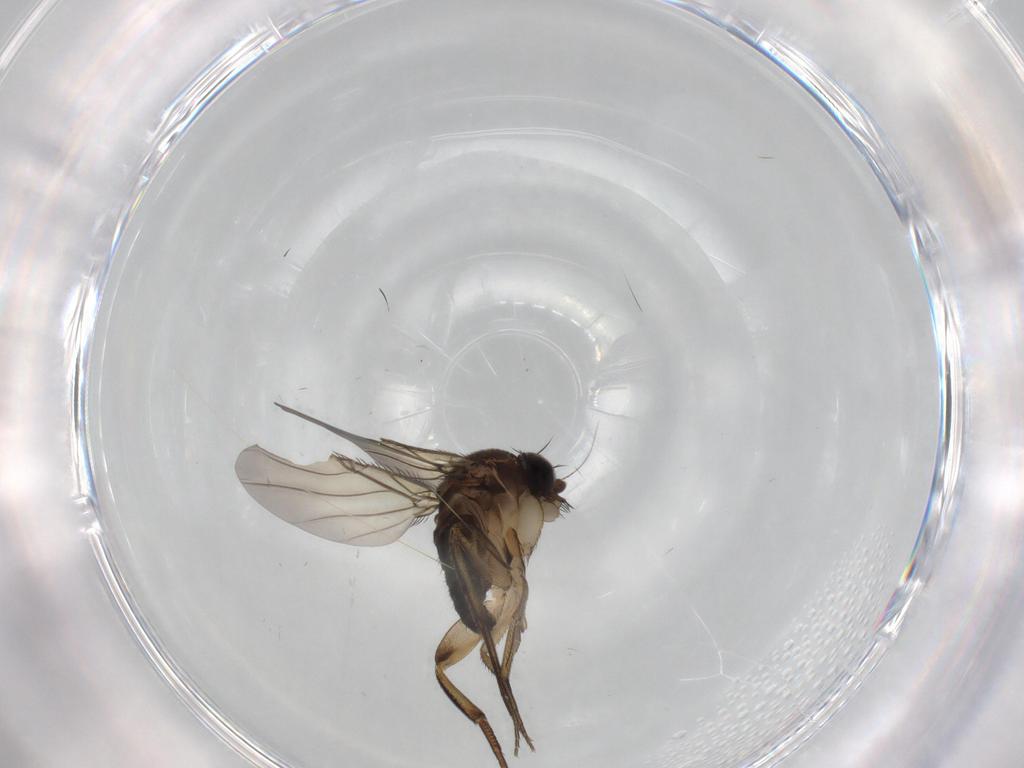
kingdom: Animalia
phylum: Arthropoda
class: Insecta
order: Diptera
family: Phoridae
